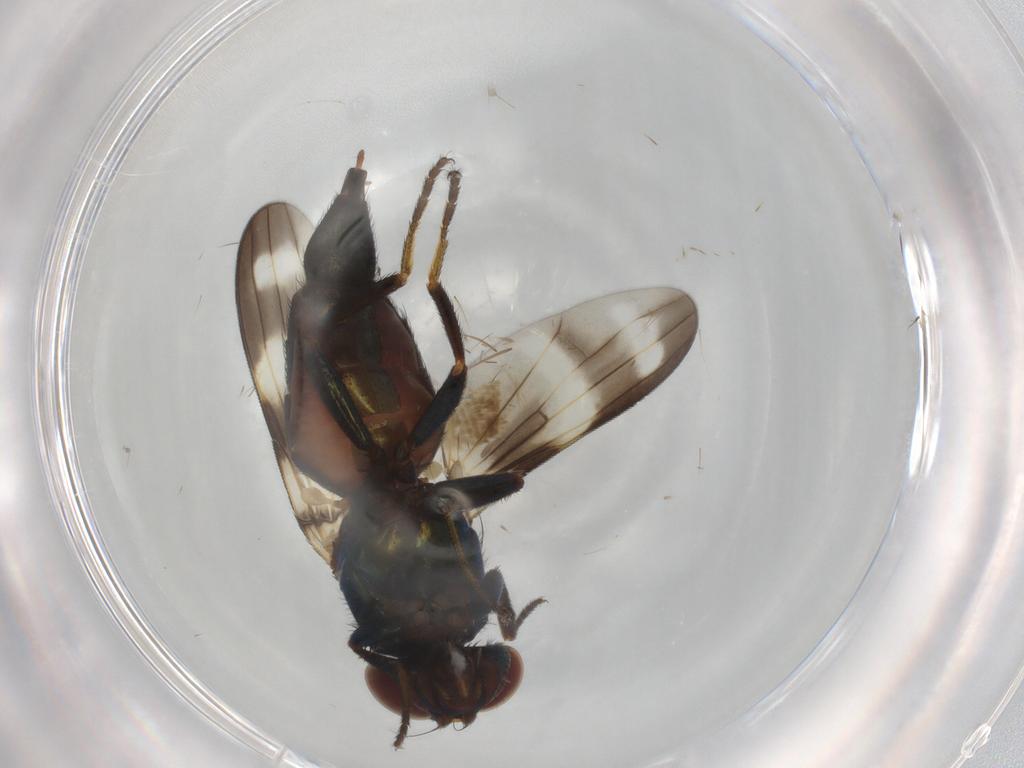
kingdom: Animalia
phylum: Arthropoda
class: Insecta
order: Diptera
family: Ulidiidae
